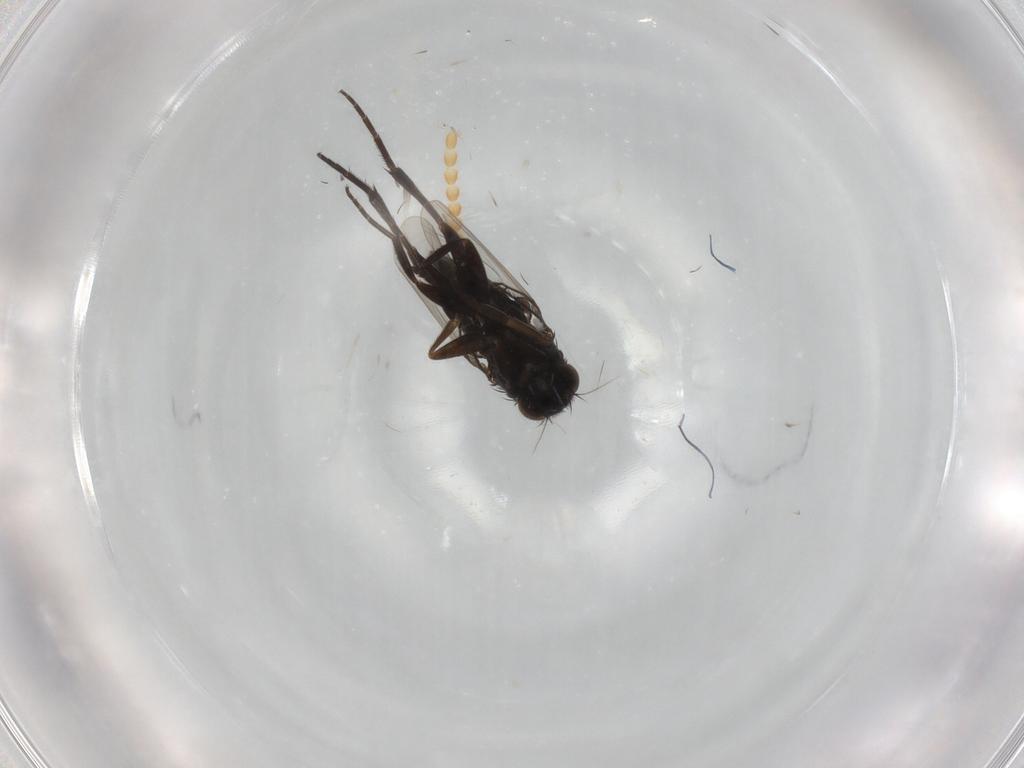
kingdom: Animalia
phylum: Arthropoda
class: Insecta
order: Diptera
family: Phoridae
